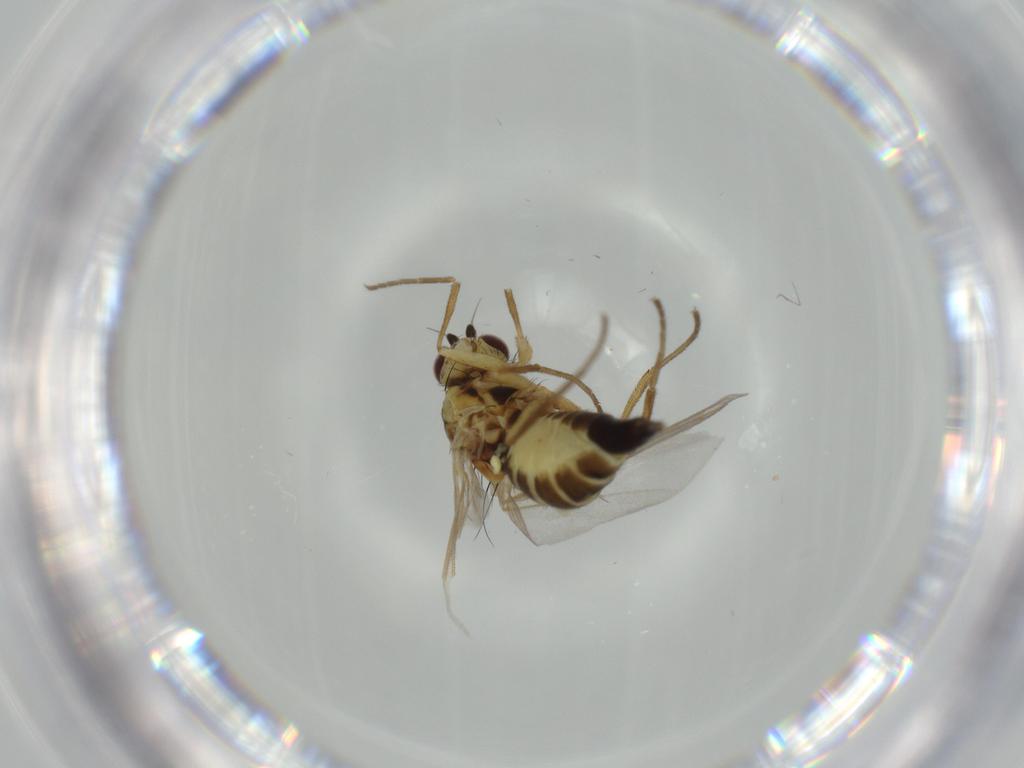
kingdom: Animalia
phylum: Arthropoda
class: Insecta
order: Diptera
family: Agromyzidae
